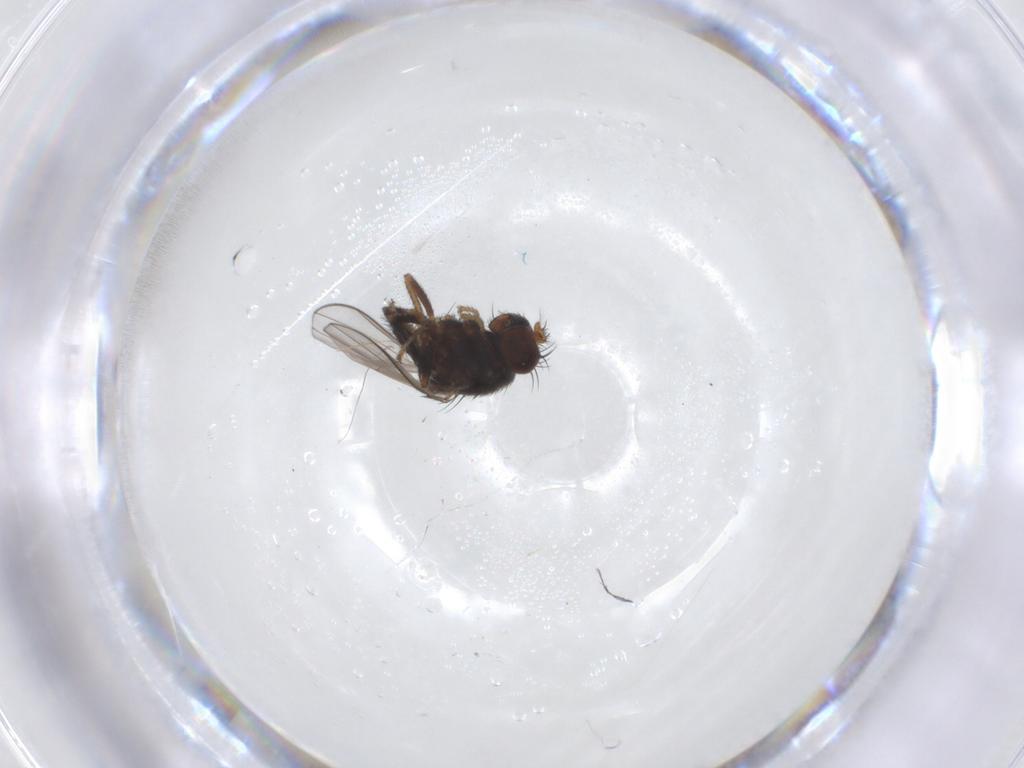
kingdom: Animalia
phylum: Arthropoda
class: Insecta
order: Diptera
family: Ephydridae
